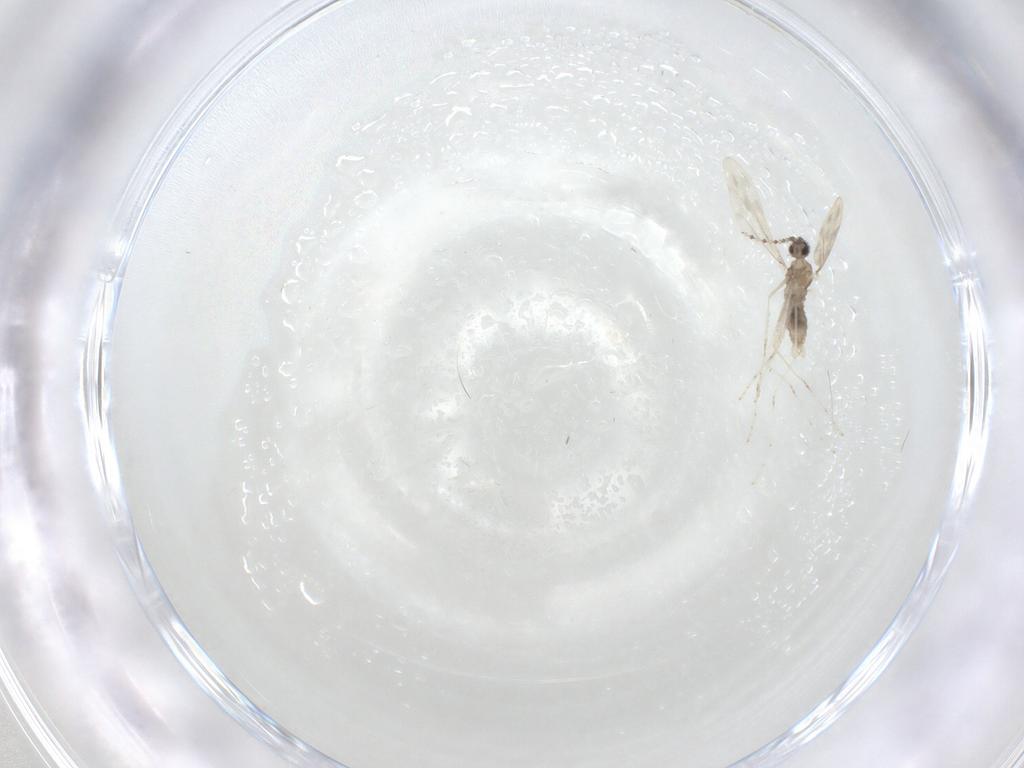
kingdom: Animalia
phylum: Arthropoda
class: Insecta
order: Diptera
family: Cecidomyiidae
